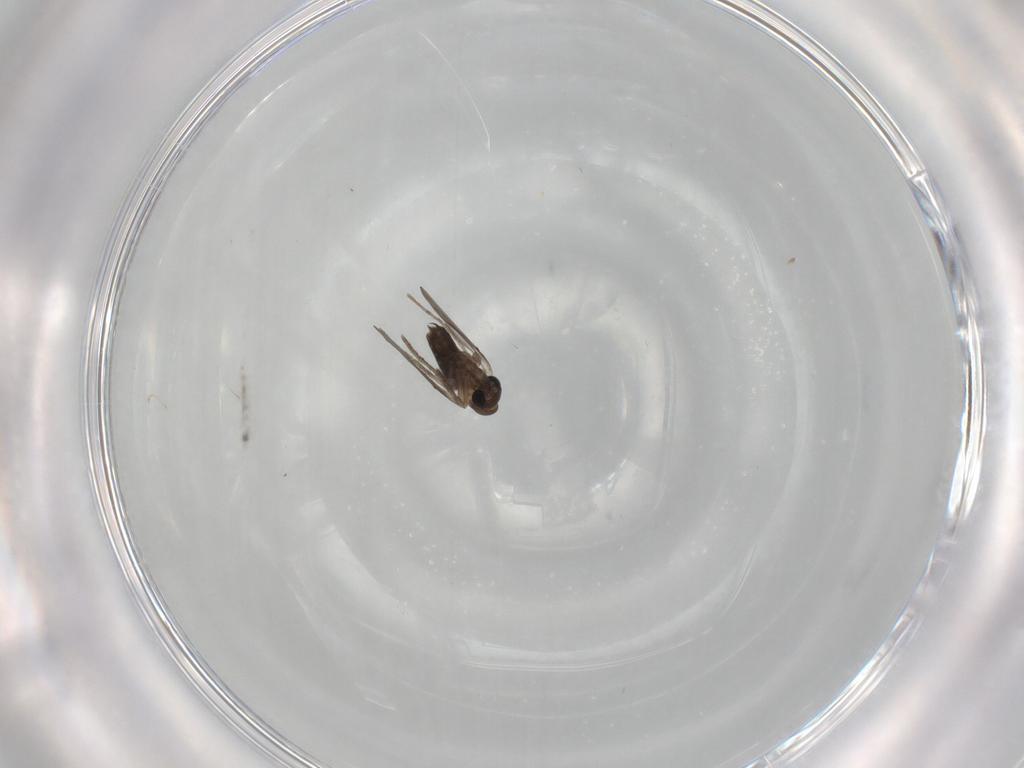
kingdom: Animalia
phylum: Arthropoda
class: Insecta
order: Diptera
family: Cecidomyiidae
